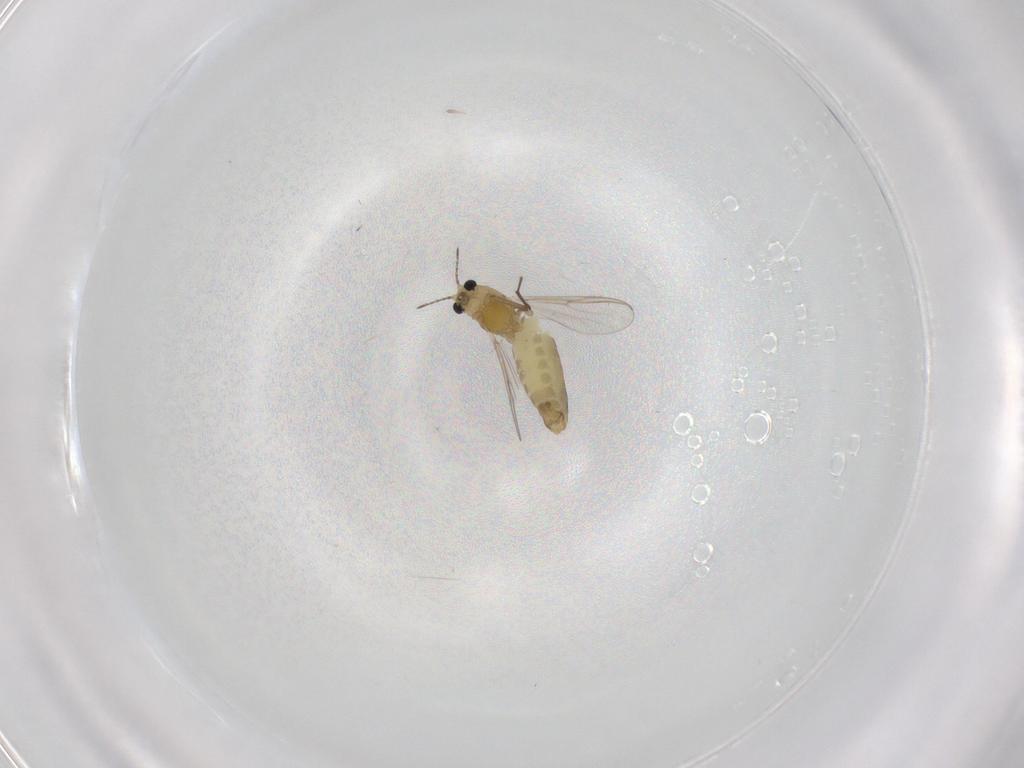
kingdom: Animalia
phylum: Arthropoda
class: Insecta
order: Diptera
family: Chironomidae
